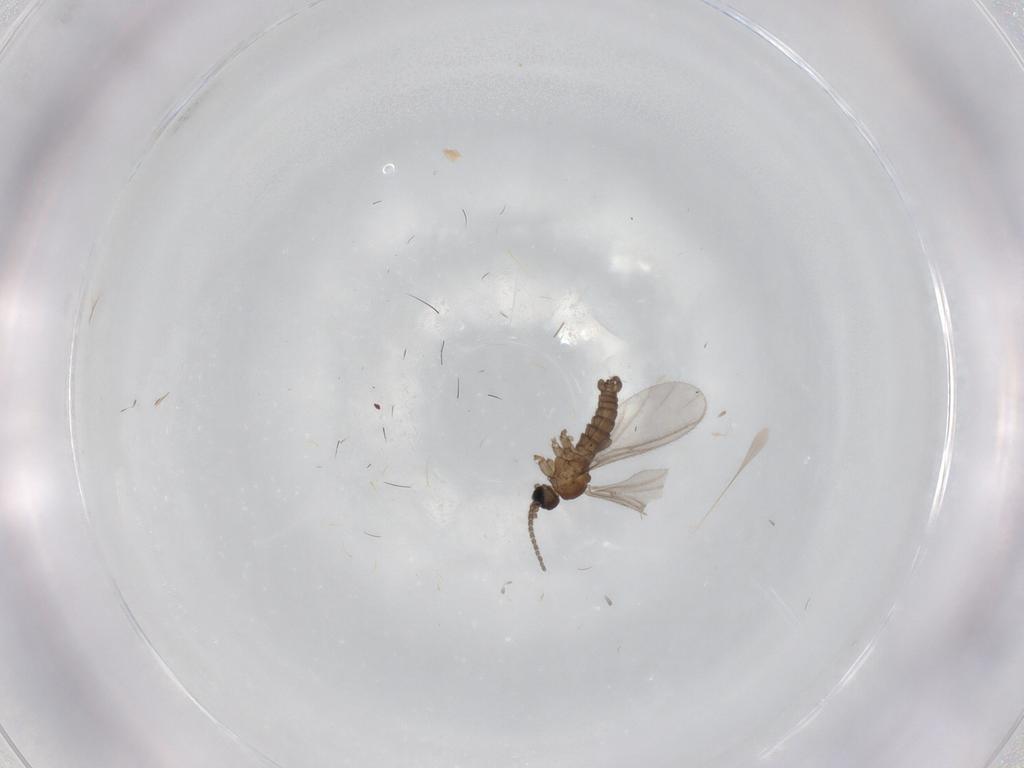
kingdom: Animalia
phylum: Arthropoda
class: Insecta
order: Diptera
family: Sciaridae
